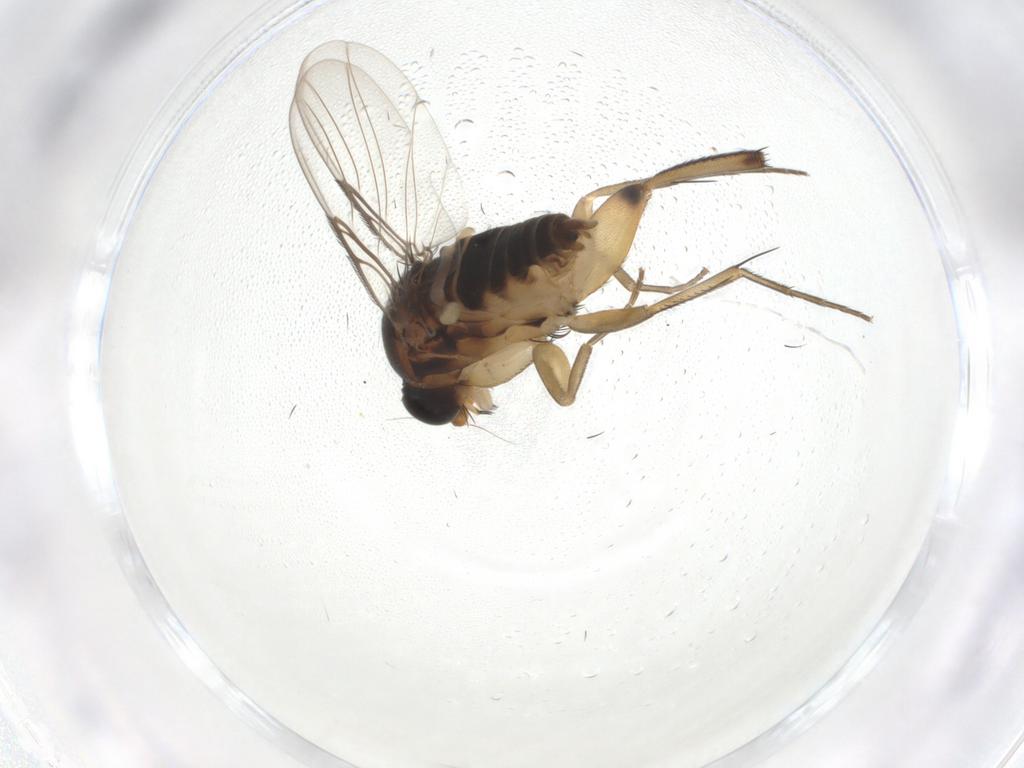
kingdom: Animalia
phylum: Arthropoda
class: Insecta
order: Diptera
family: Phoridae
